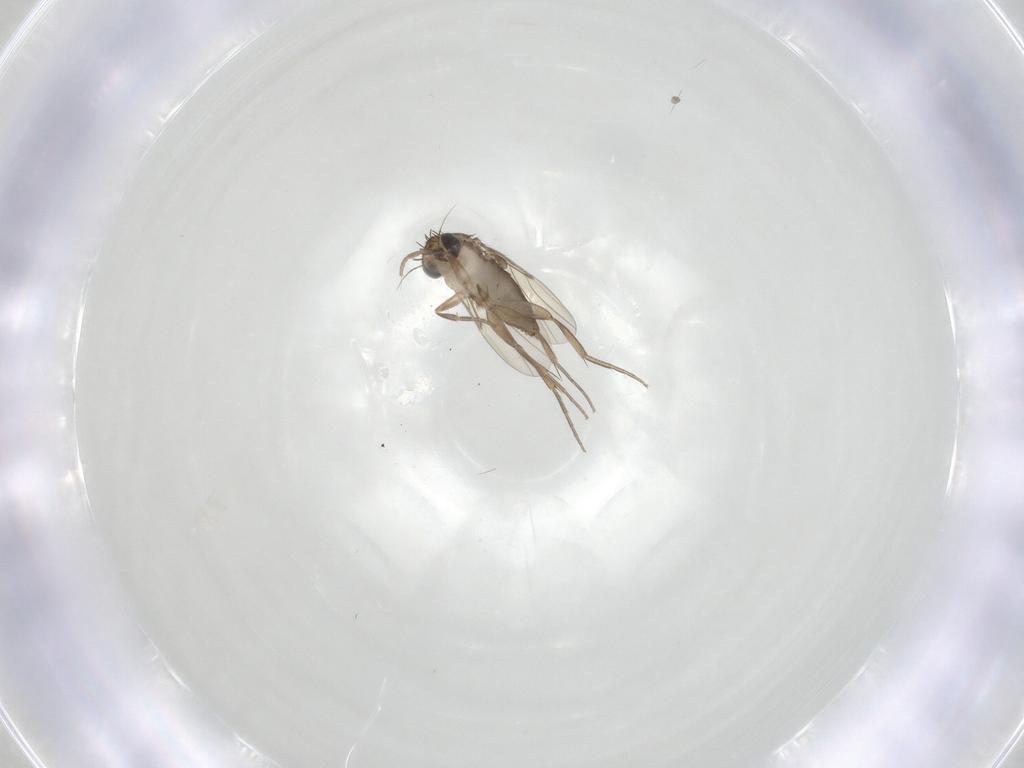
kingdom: Animalia
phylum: Arthropoda
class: Insecta
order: Diptera
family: Phoridae
